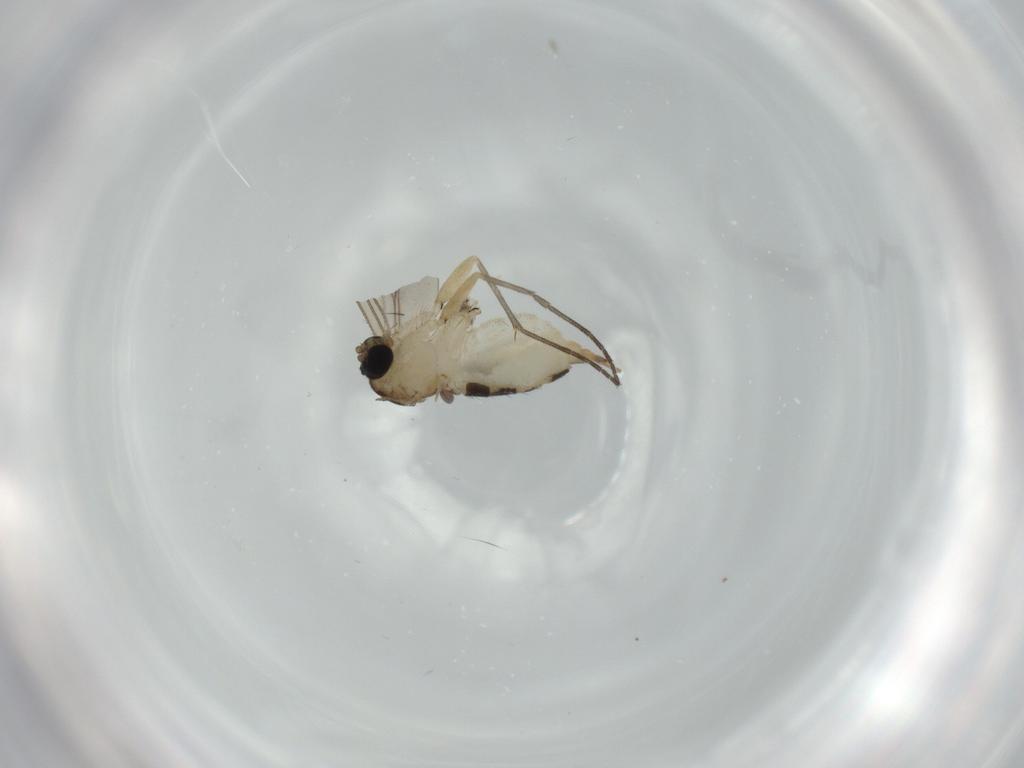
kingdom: Animalia
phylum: Arthropoda
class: Insecta
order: Diptera
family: Sciaridae
